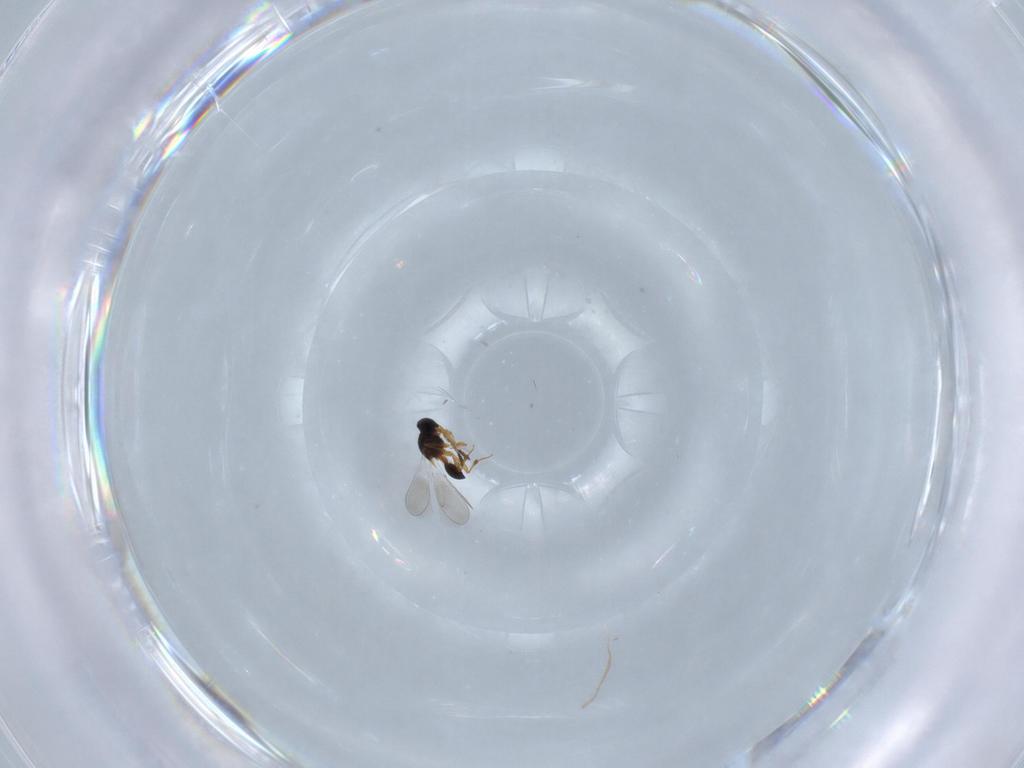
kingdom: Animalia
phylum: Arthropoda
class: Insecta
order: Hymenoptera
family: Platygastridae
